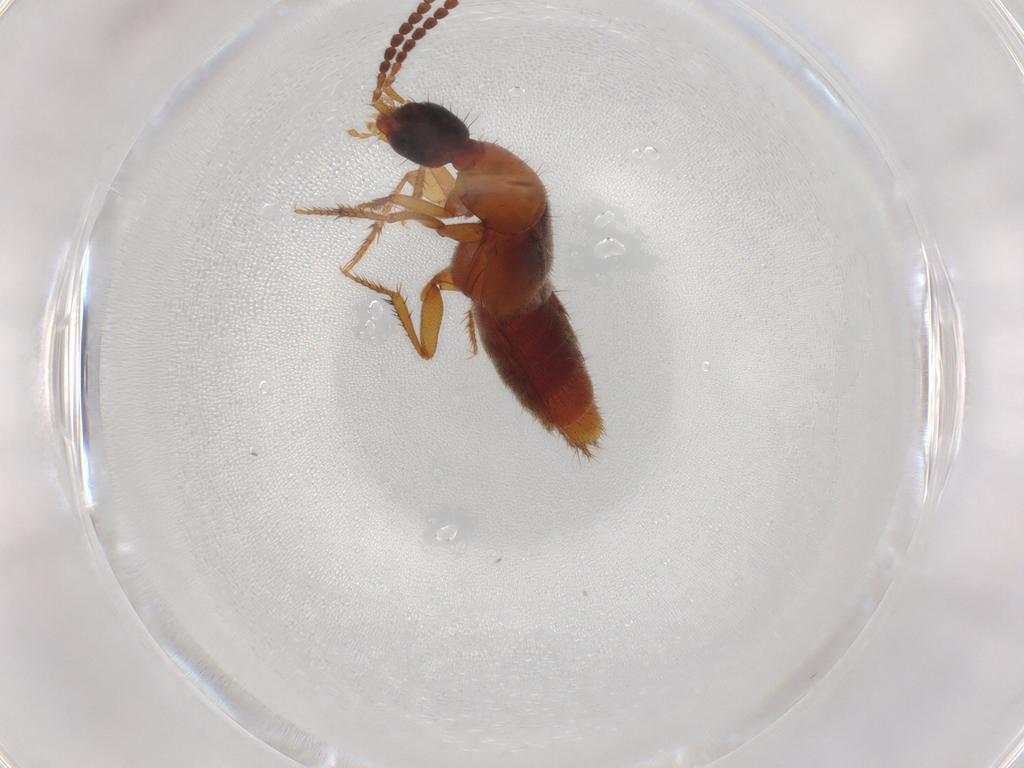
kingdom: Animalia
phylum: Arthropoda
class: Insecta
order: Coleoptera
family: Staphylinidae
